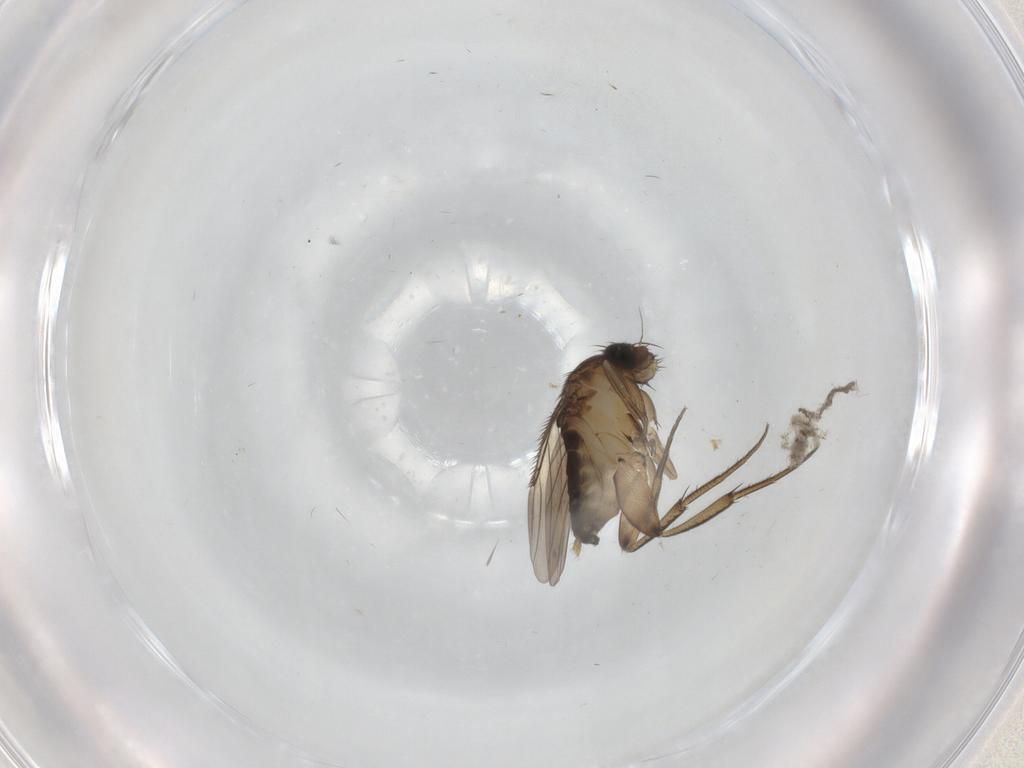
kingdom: Animalia
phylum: Arthropoda
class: Insecta
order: Diptera
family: Phoridae
